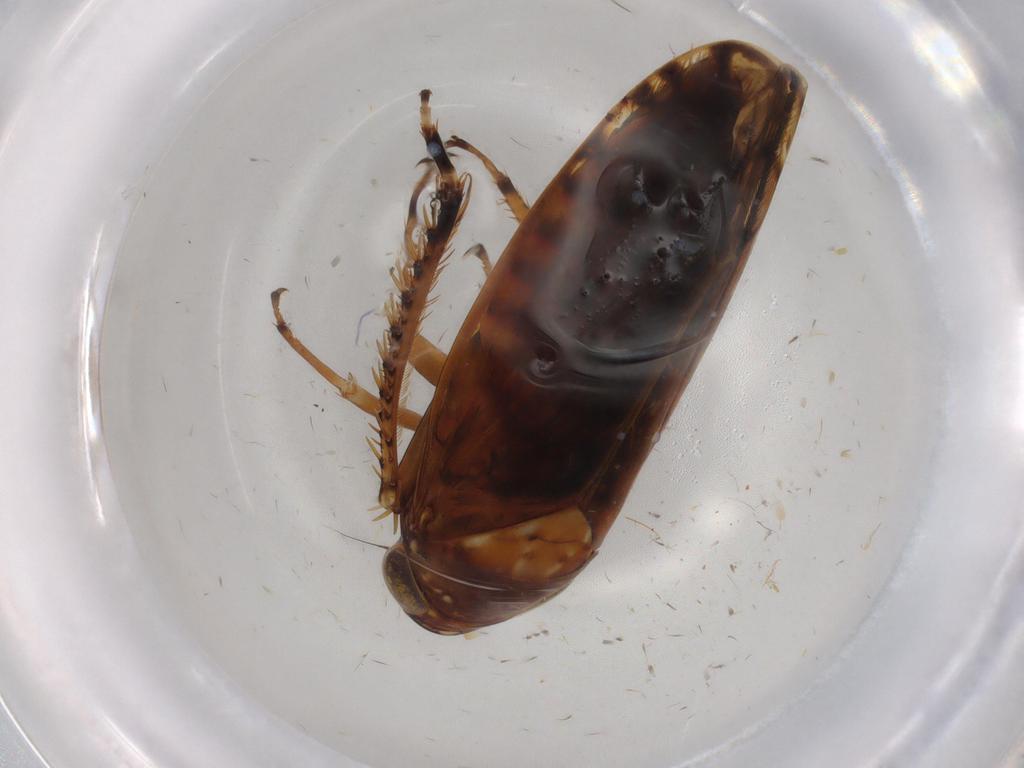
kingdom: Animalia
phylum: Arthropoda
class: Insecta
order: Hemiptera
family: Cicadellidae
